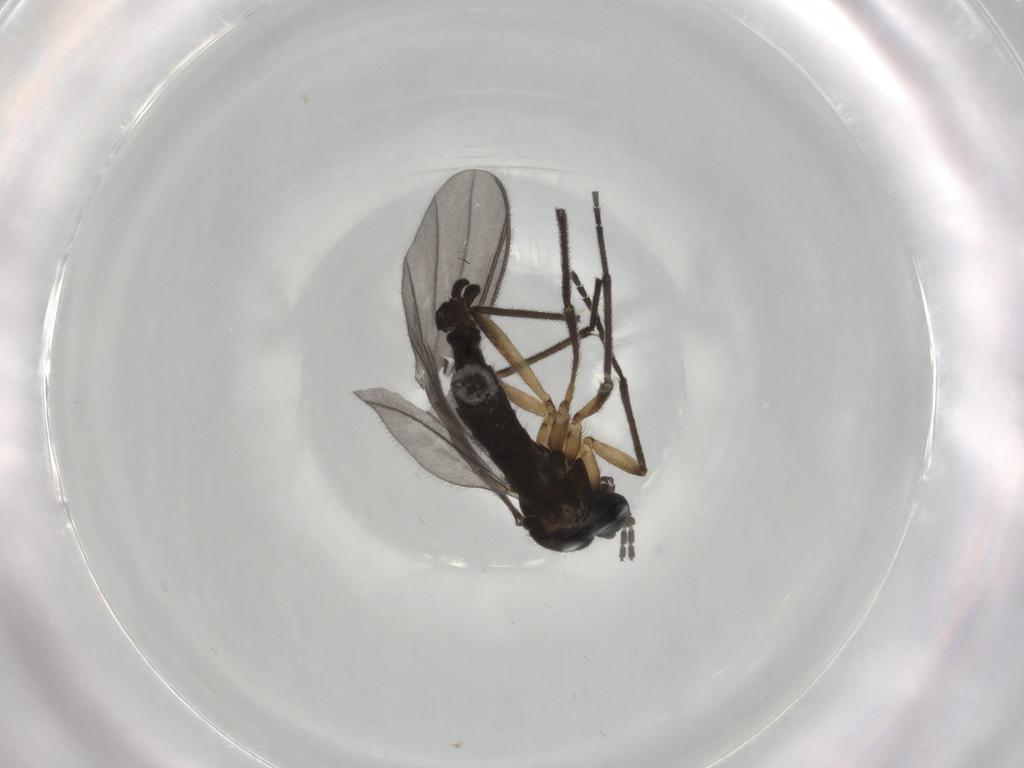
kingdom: Animalia
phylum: Arthropoda
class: Insecta
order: Diptera
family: Sciaridae
